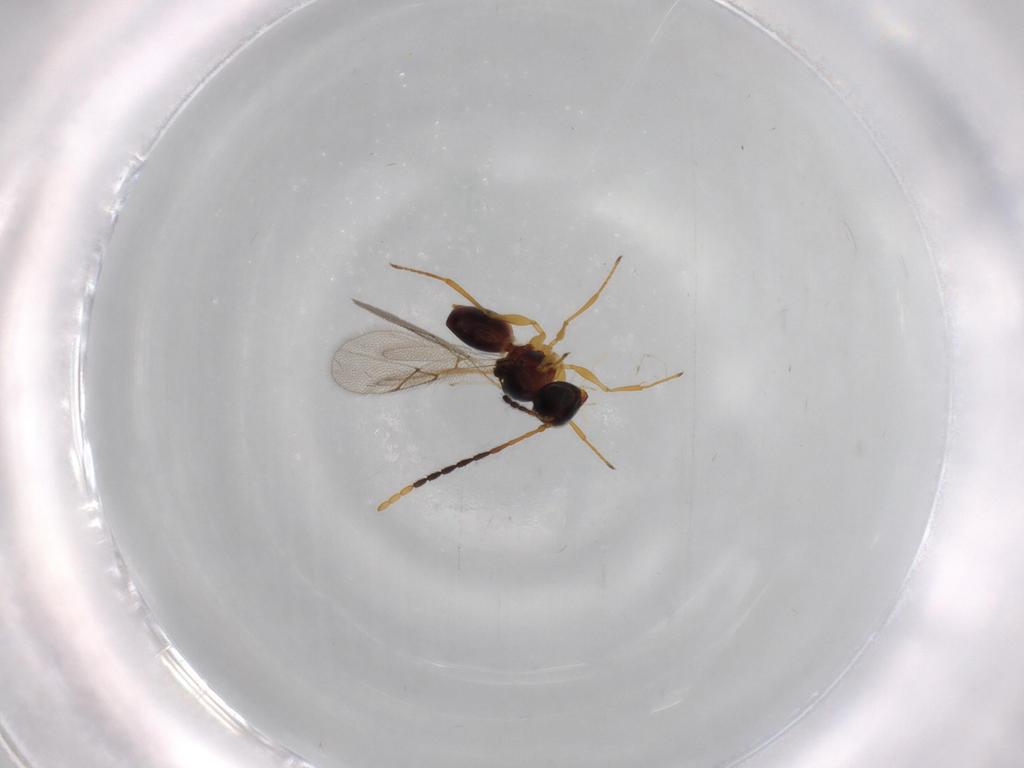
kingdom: Animalia
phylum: Arthropoda
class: Insecta
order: Hymenoptera
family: Figitidae
